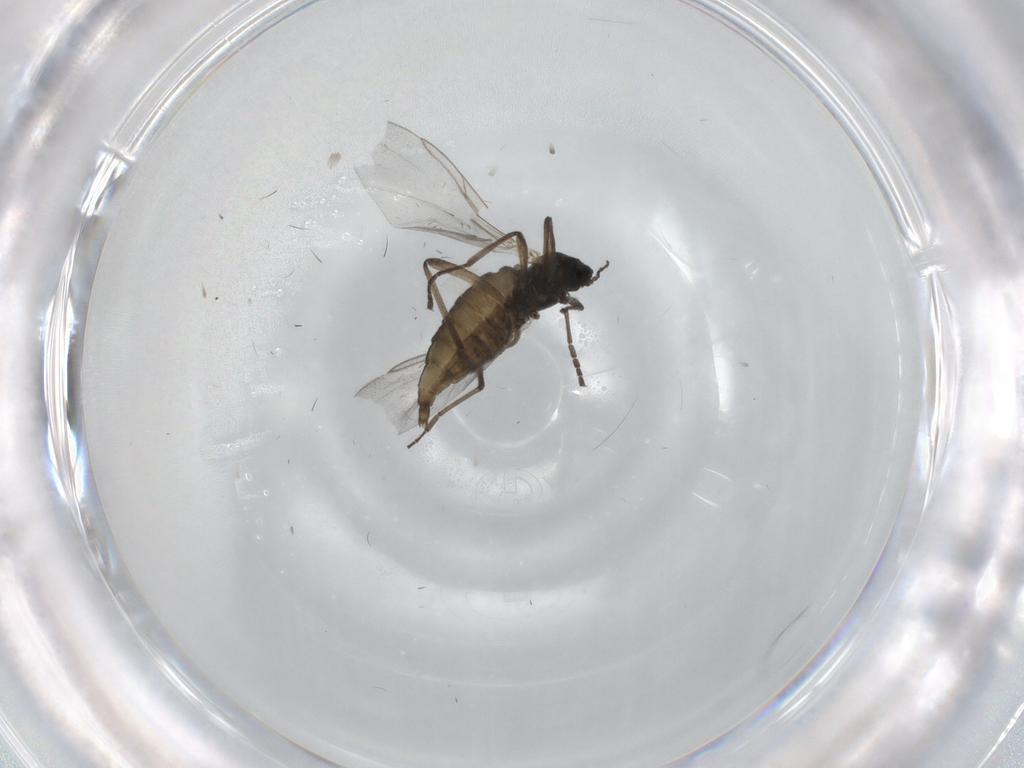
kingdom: Animalia
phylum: Arthropoda
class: Insecta
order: Diptera
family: Cecidomyiidae
